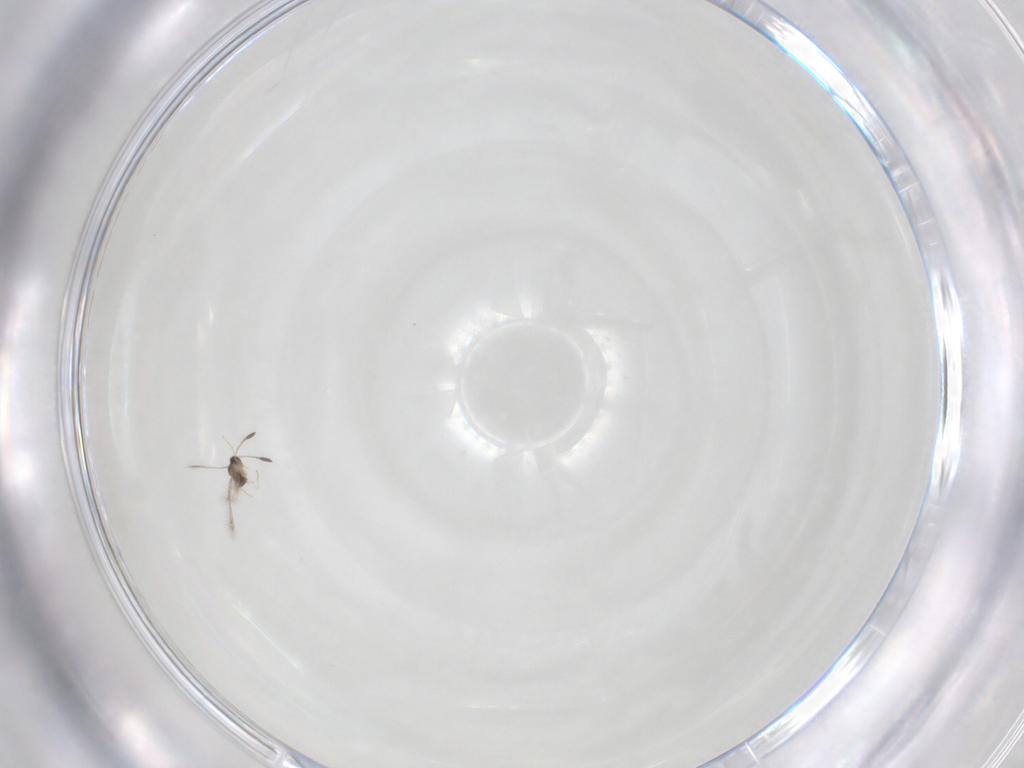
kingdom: Animalia
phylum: Arthropoda
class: Insecta
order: Hymenoptera
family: Mymaridae
